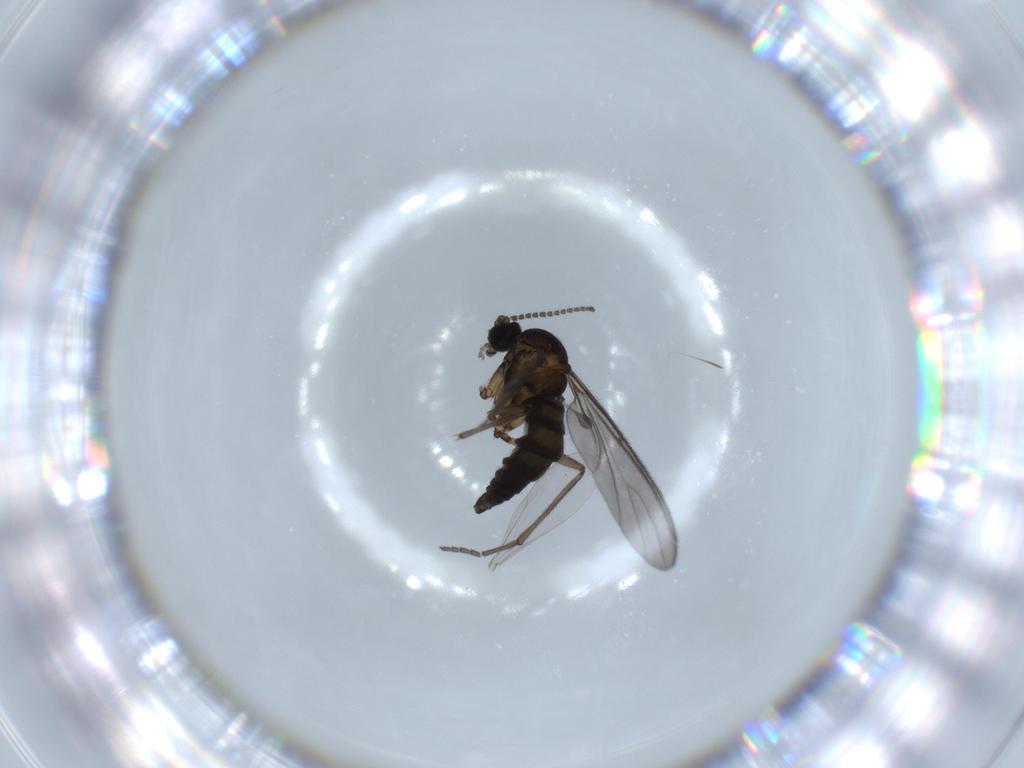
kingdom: Animalia
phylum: Arthropoda
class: Insecta
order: Diptera
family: Sciaridae
